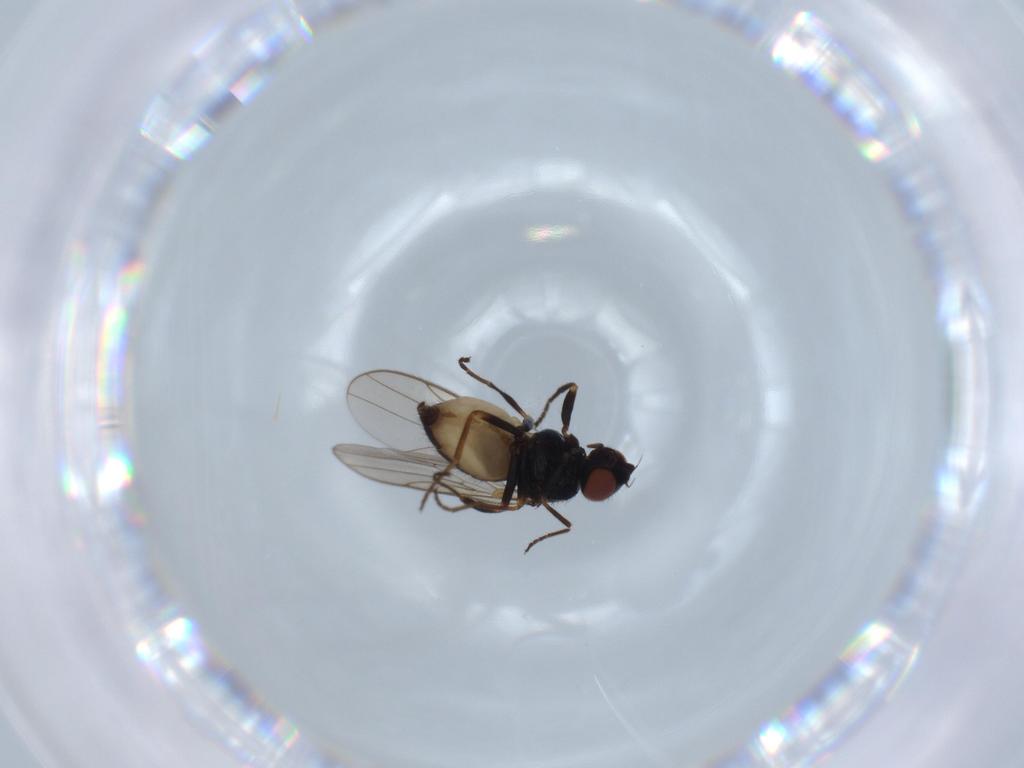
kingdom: Animalia
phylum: Arthropoda
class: Insecta
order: Diptera
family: Chloropidae
